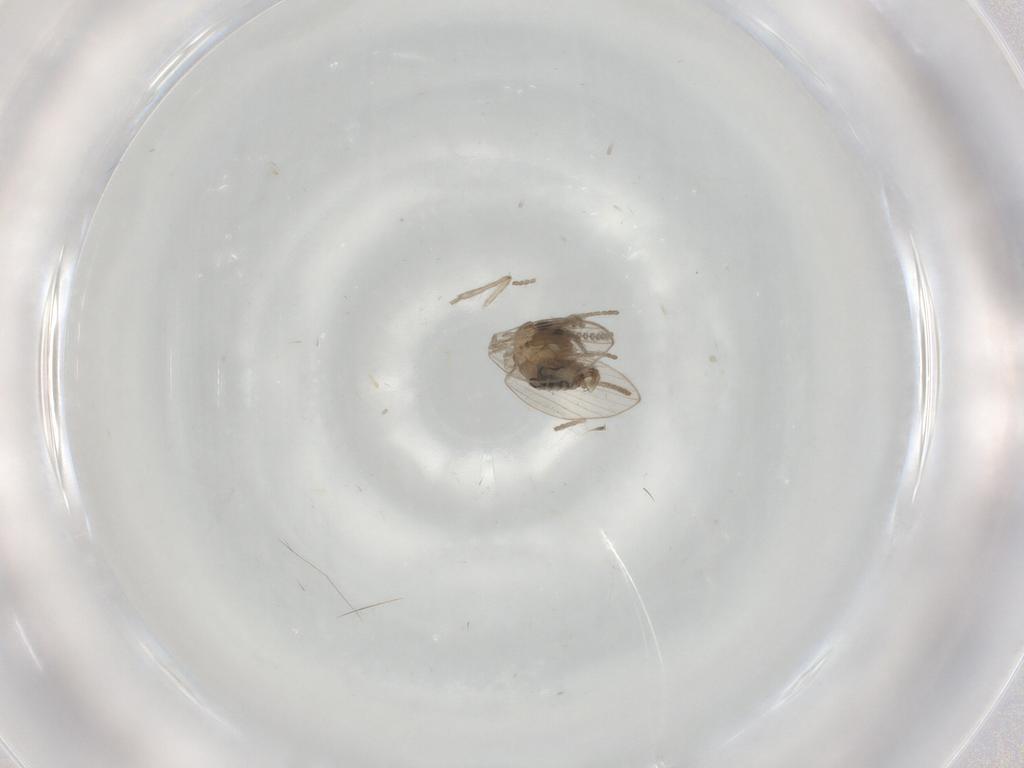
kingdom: Animalia
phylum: Arthropoda
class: Insecta
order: Diptera
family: Psychodidae
